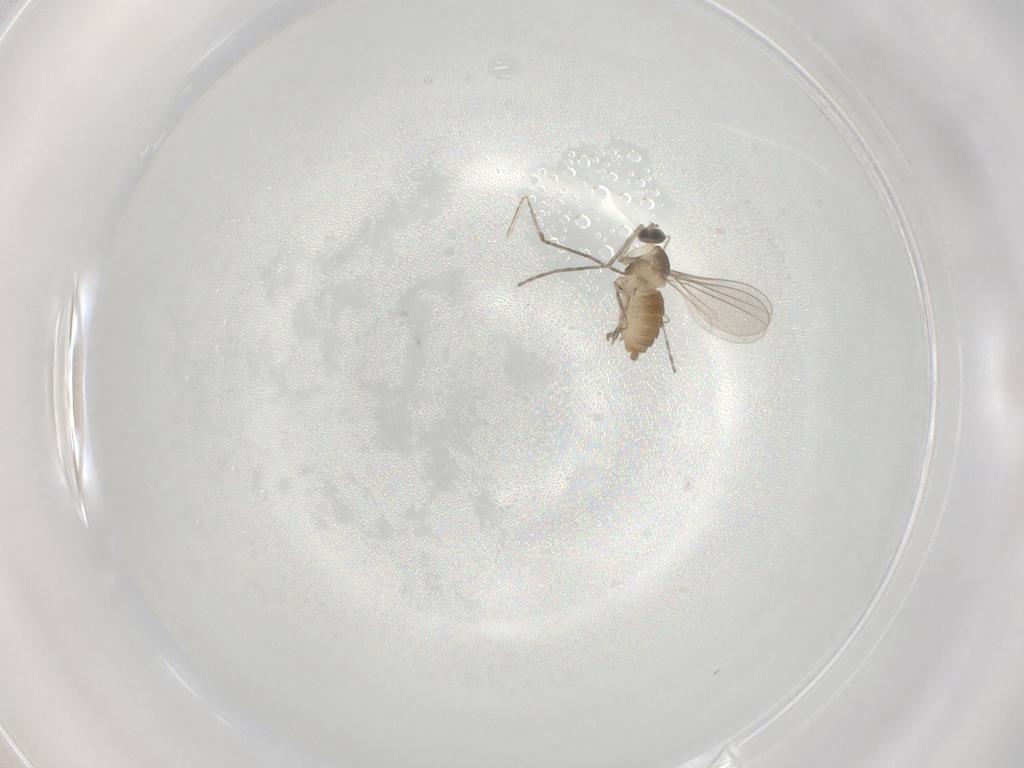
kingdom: Animalia
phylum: Arthropoda
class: Insecta
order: Diptera
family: Cecidomyiidae
